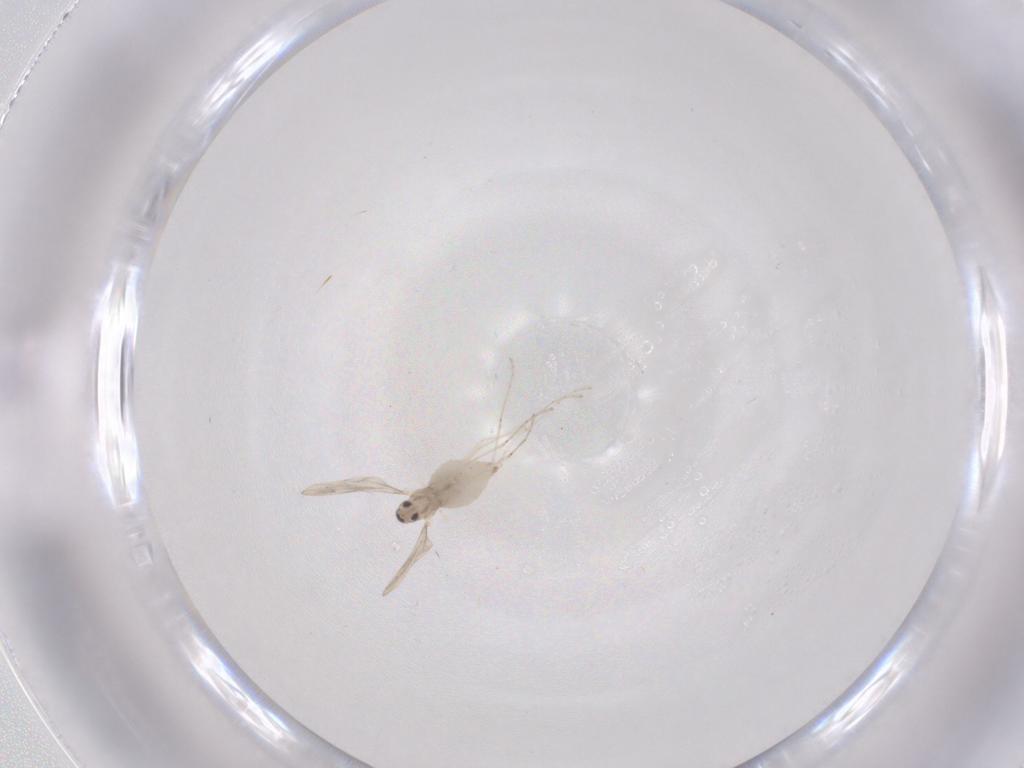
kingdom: Animalia
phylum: Arthropoda
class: Insecta
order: Diptera
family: Cecidomyiidae
